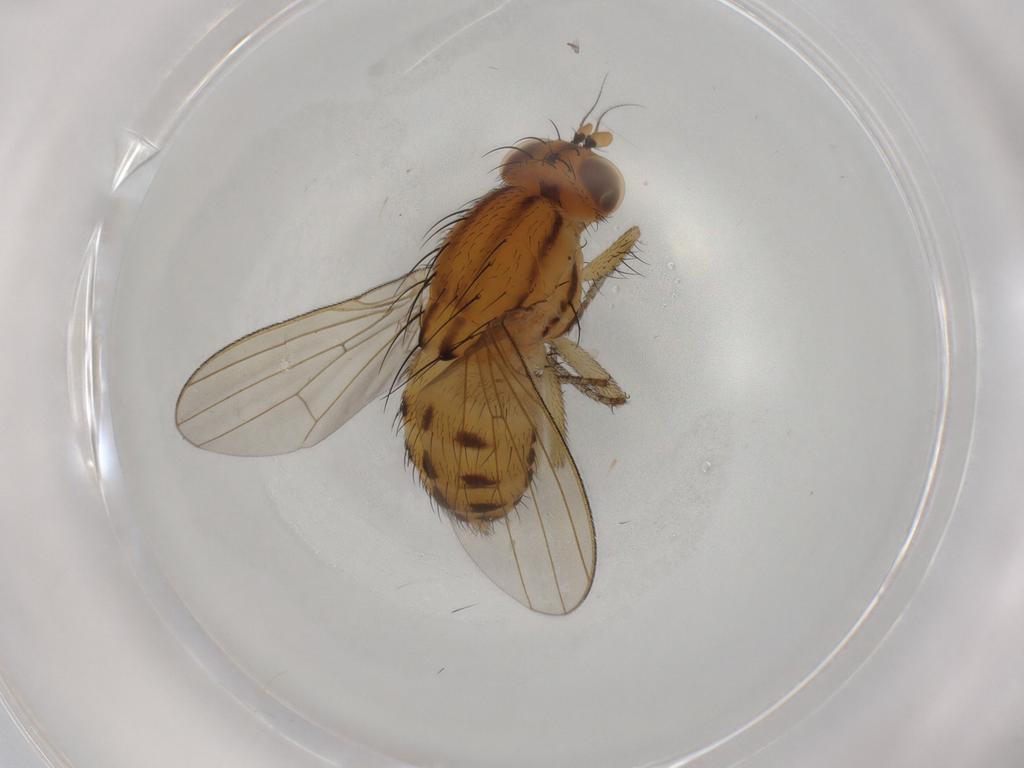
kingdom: Animalia
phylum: Arthropoda
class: Insecta
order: Diptera
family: Lauxaniidae
